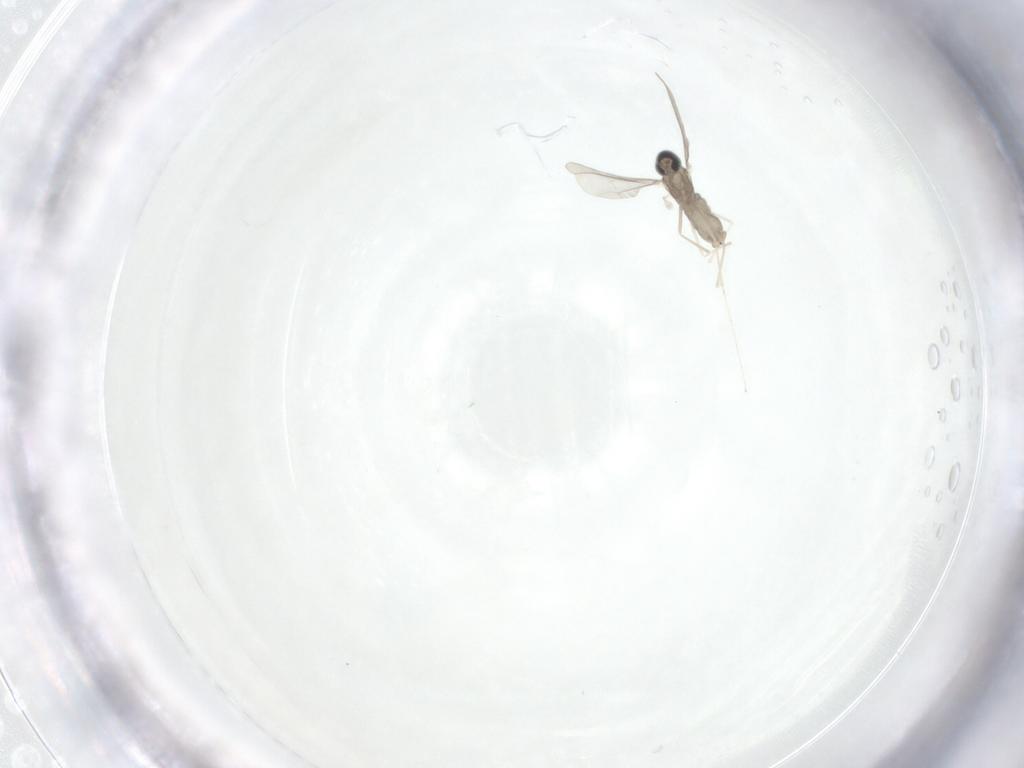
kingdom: Animalia
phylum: Arthropoda
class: Insecta
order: Diptera
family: Cecidomyiidae
